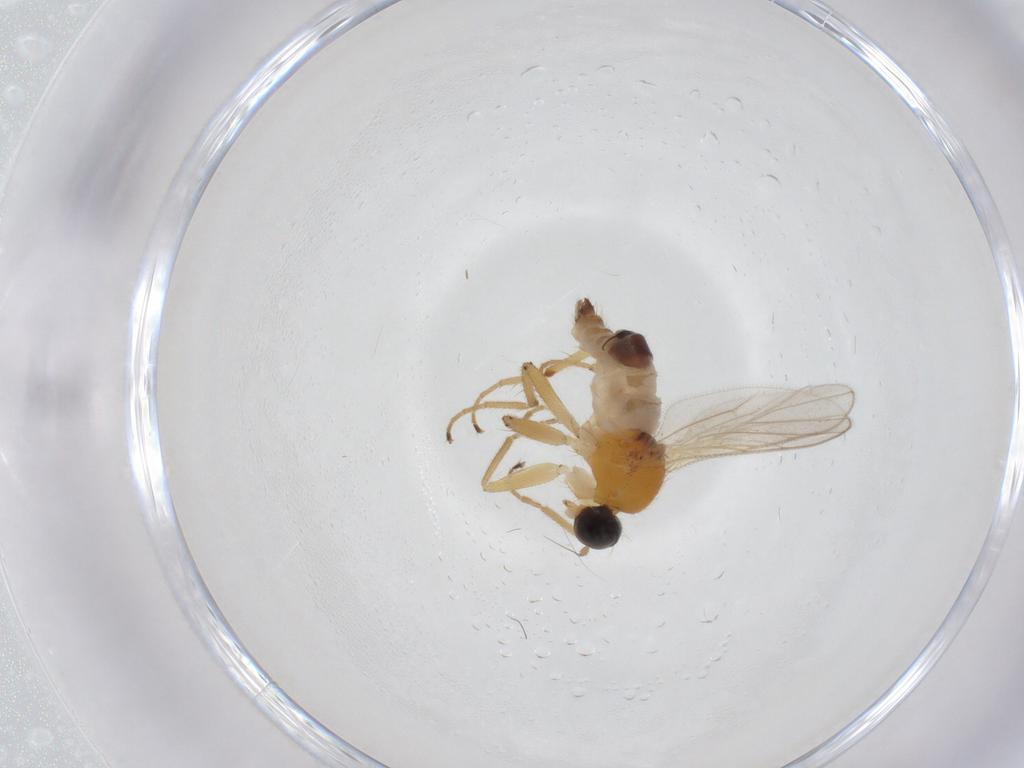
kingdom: Animalia
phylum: Arthropoda
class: Insecta
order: Diptera
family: Hybotidae
